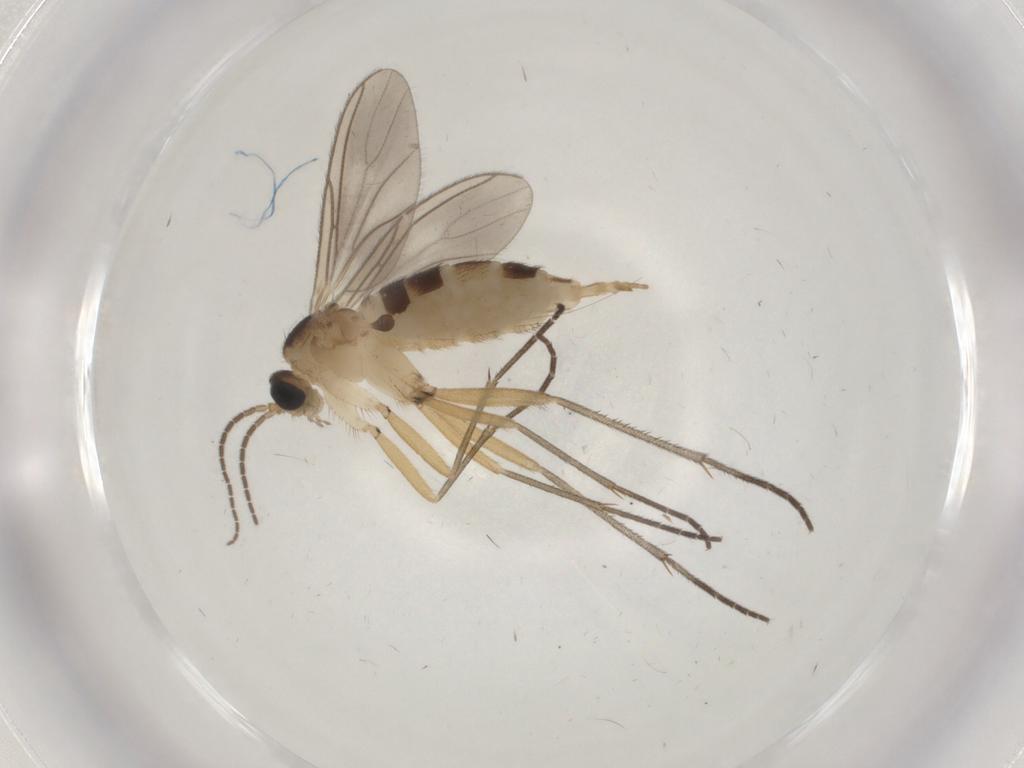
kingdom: Animalia
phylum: Arthropoda
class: Insecta
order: Diptera
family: Sciaridae
